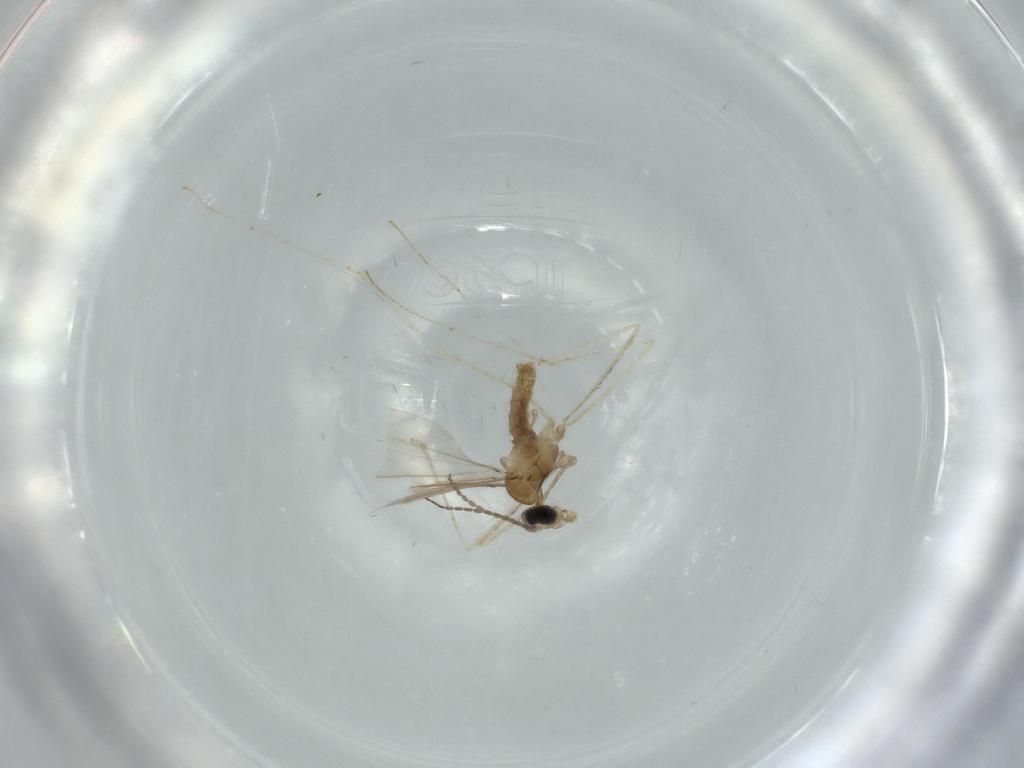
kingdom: Animalia
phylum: Arthropoda
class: Insecta
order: Diptera
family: Cecidomyiidae
